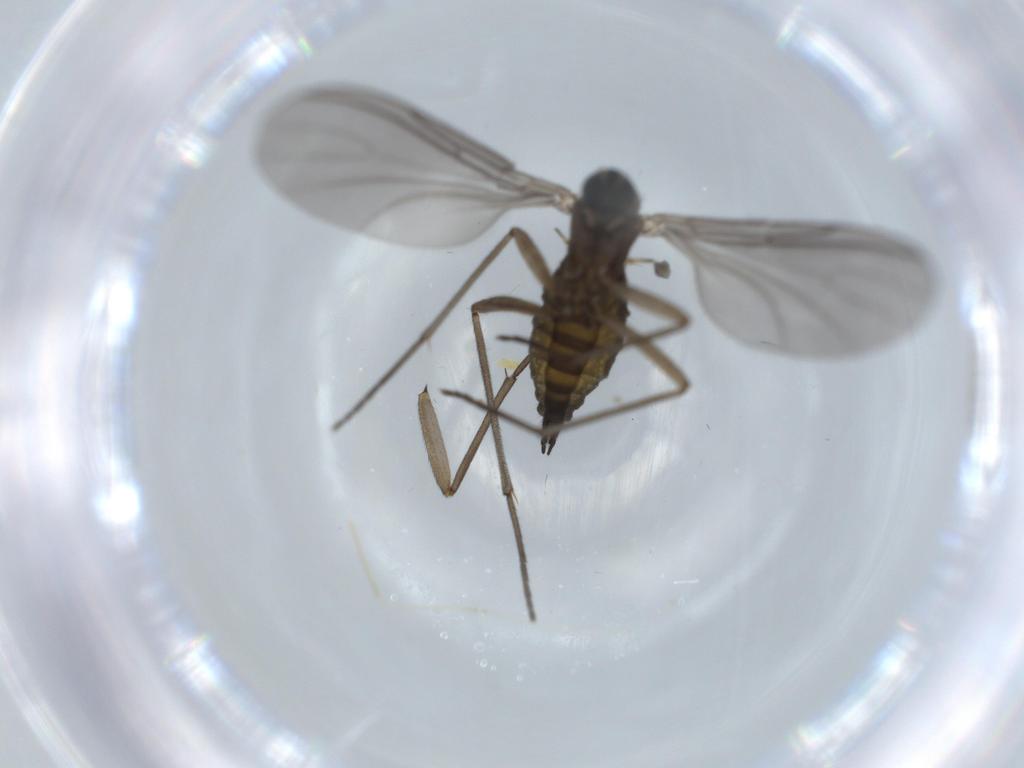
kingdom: Animalia
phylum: Arthropoda
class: Insecta
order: Diptera
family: Sciaridae
